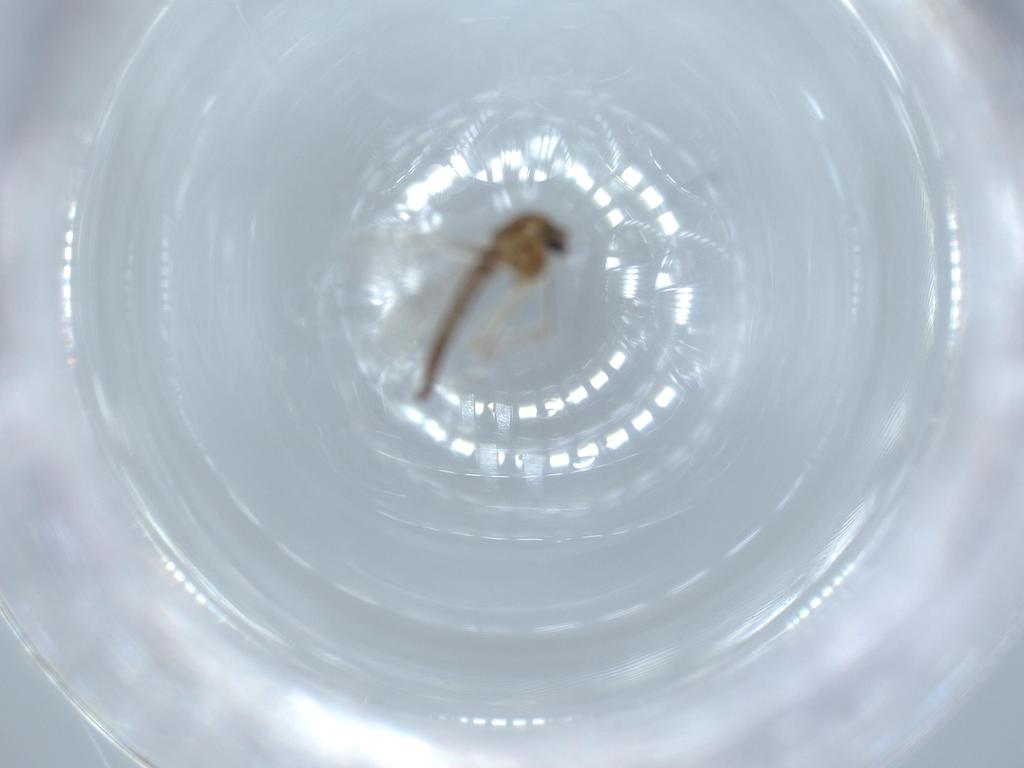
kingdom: Animalia
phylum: Arthropoda
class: Insecta
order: Diptera
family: Chironomidae
